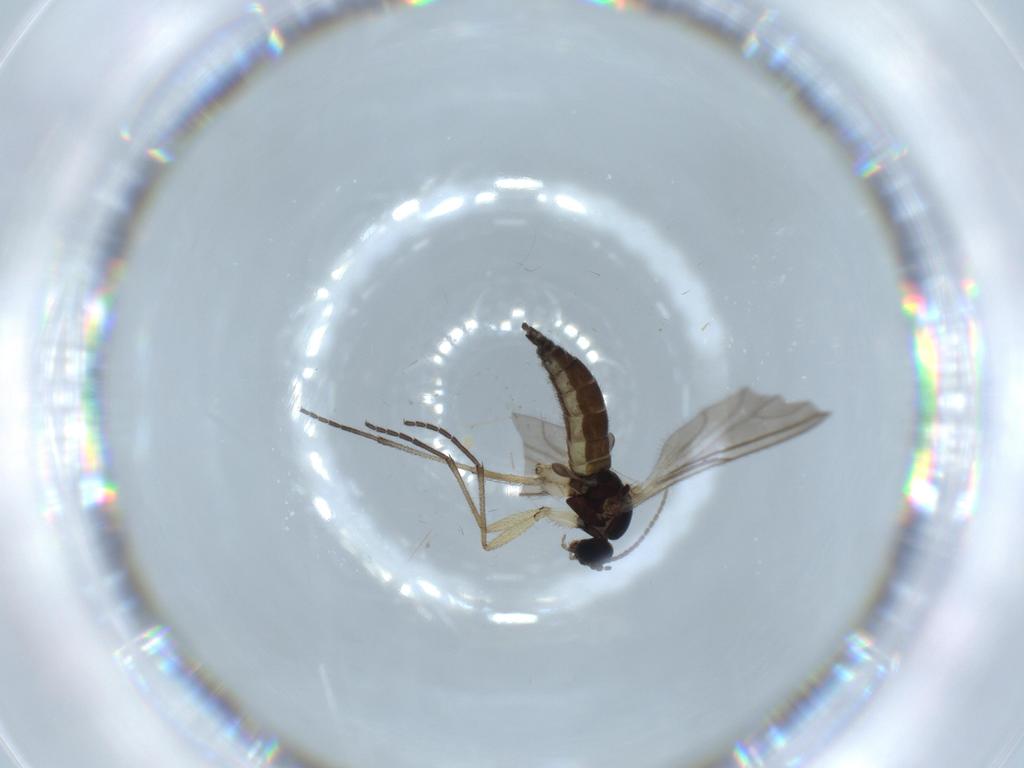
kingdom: Animalia
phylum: Arthropoda
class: Insecta
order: Diptera
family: Sciaridae
